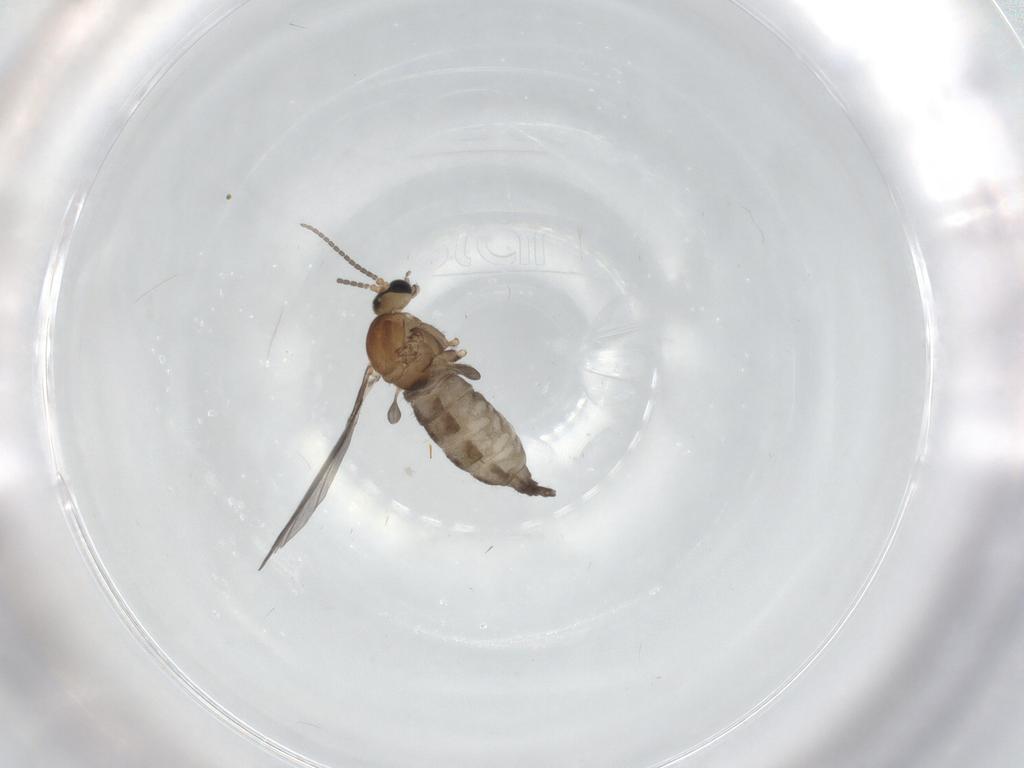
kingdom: Animalia
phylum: Arthropoda
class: Insecta
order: Diptera
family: Sciaridae
